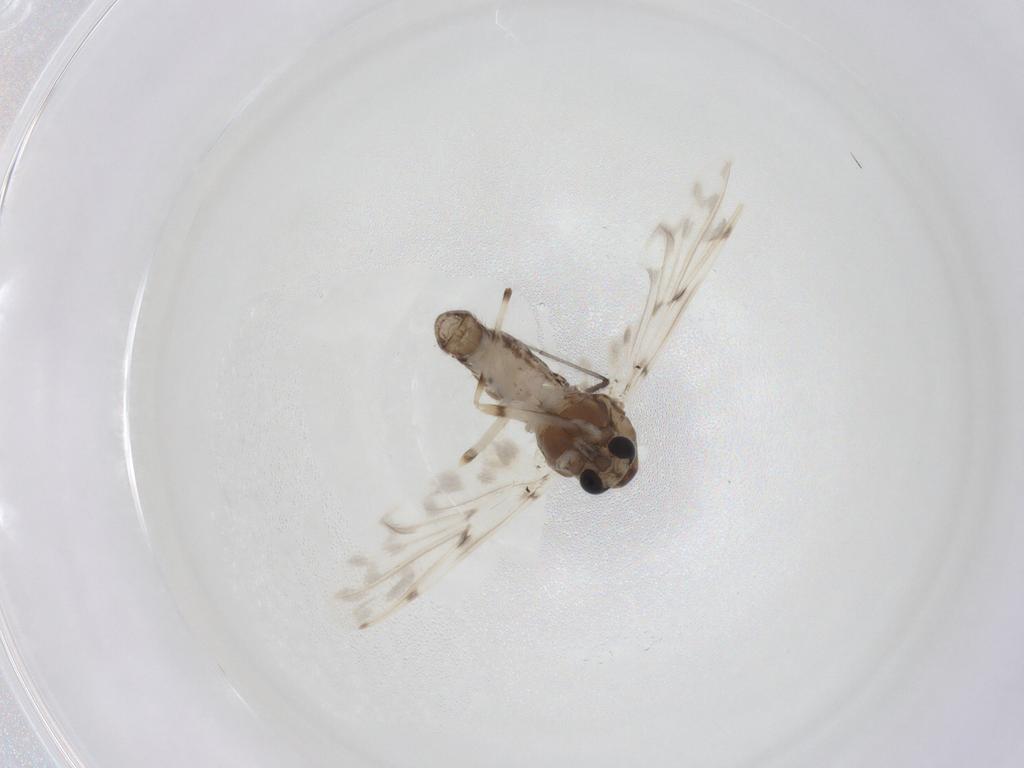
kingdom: Animalia
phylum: Arthropoda
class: Insecta
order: Diptera
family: Chironomidae
